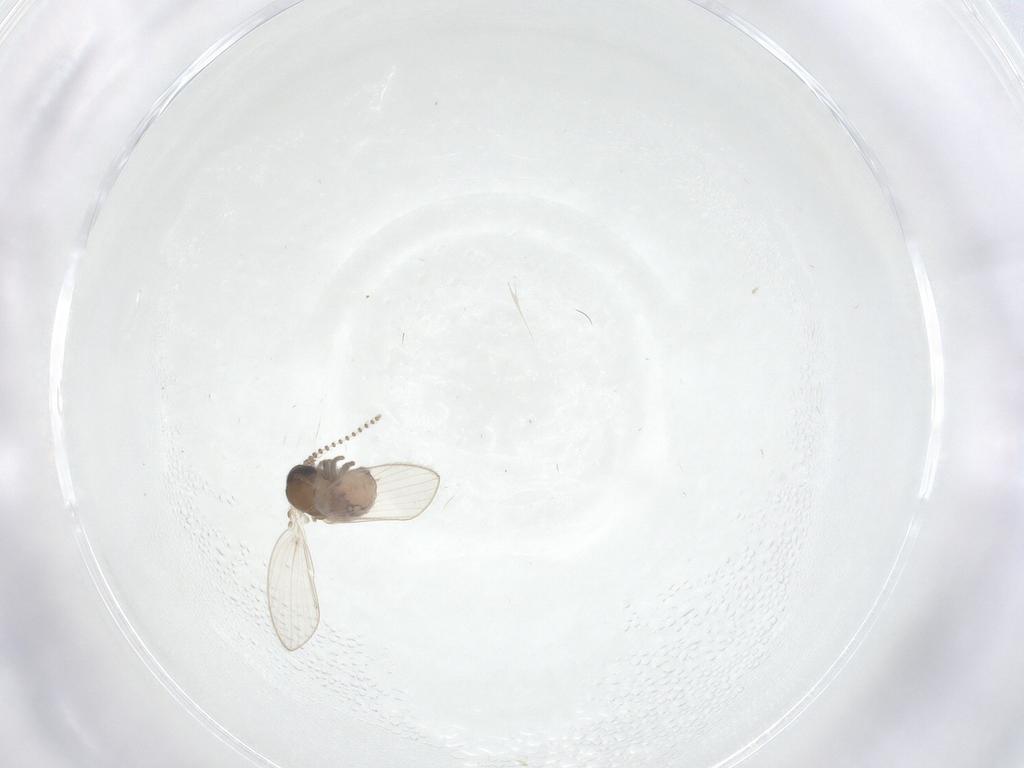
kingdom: Animalia
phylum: Arthropoda
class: Insecta
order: Diptera
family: Psychodidae
